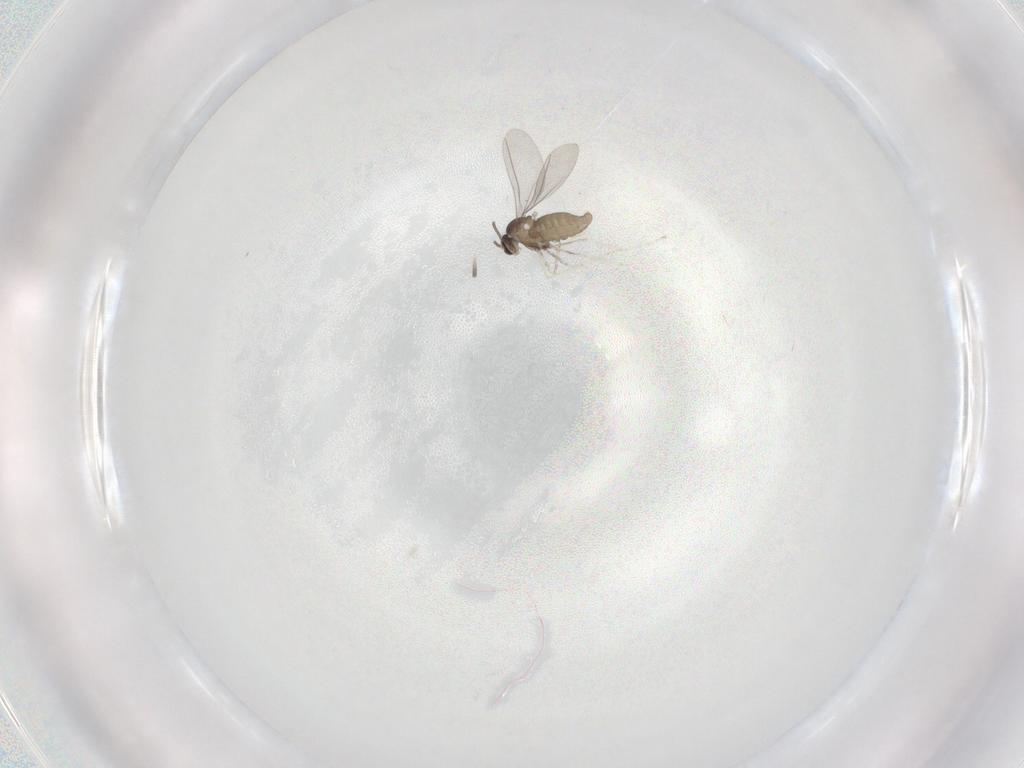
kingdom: Animalia
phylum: Arthropoda
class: Insecta
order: Diptera
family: Cecidomyiidae
